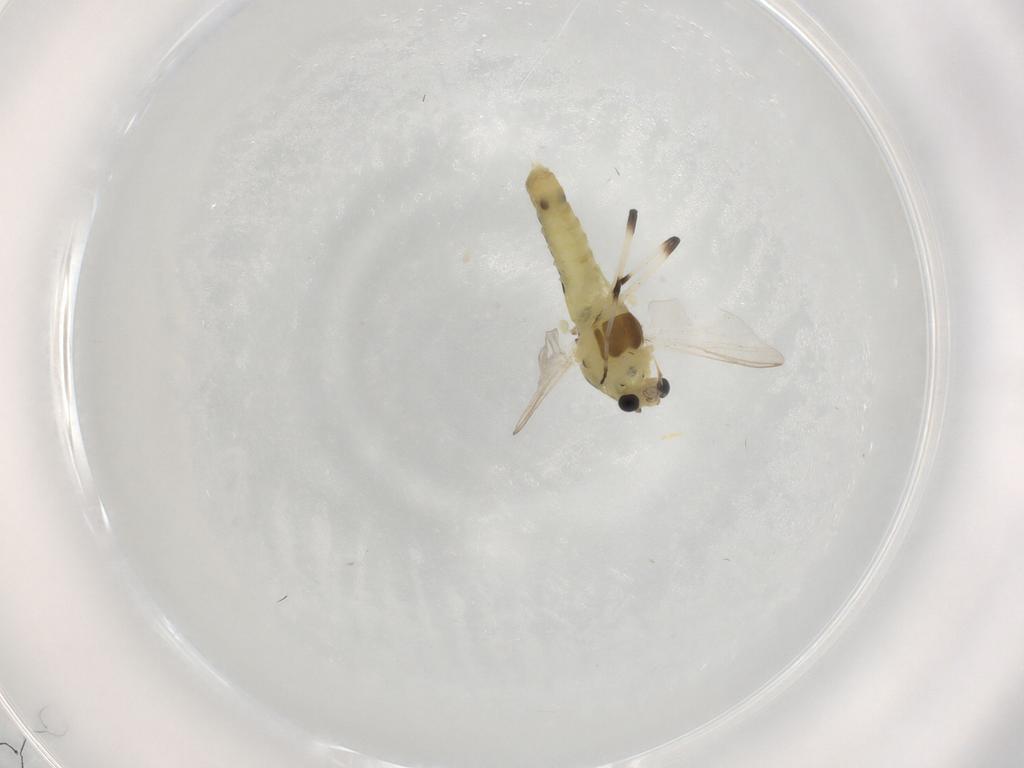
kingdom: Animalia
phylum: Arthropoda
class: Insecta
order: Diptera
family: Chironomidae
